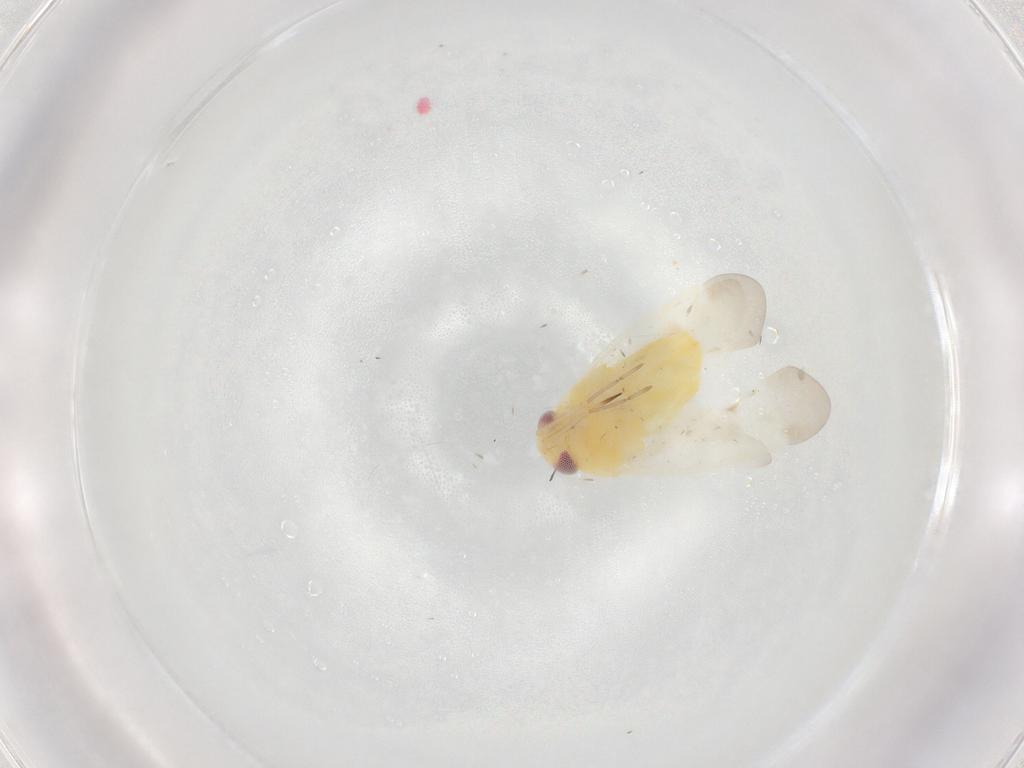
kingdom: Animalia
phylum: Arthropoda
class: Insecta
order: Hemiptera
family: Miridae
